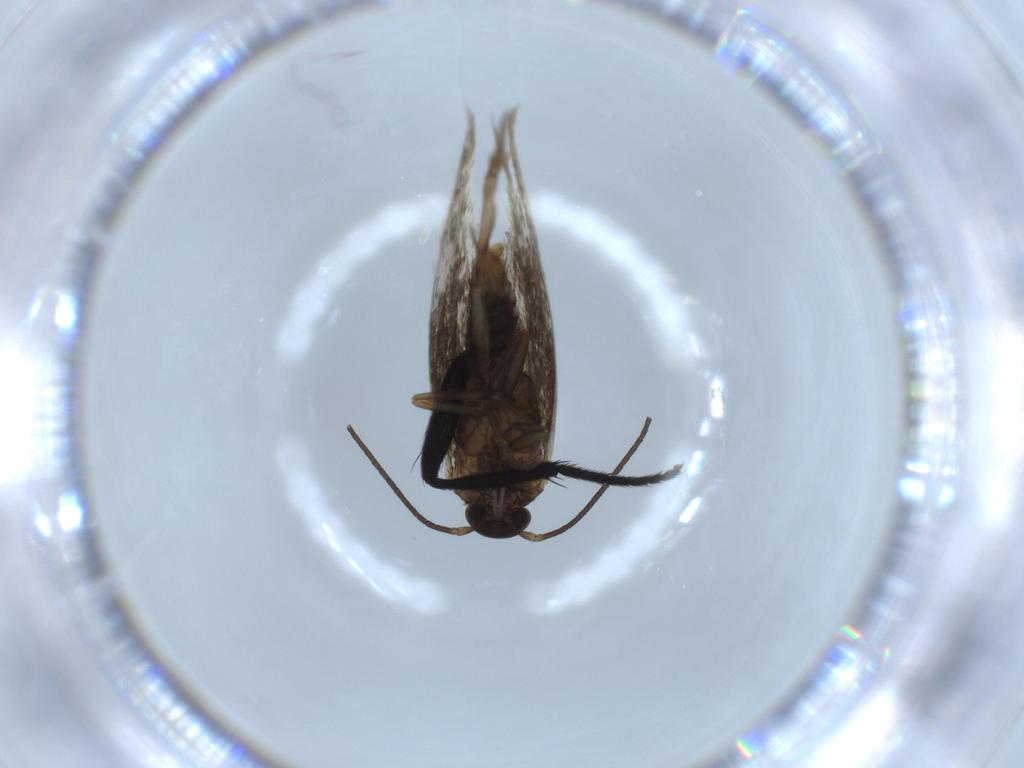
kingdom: Animalia
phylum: Arthropoda
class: Insecta
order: Lepidoptera
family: Elachistidae
